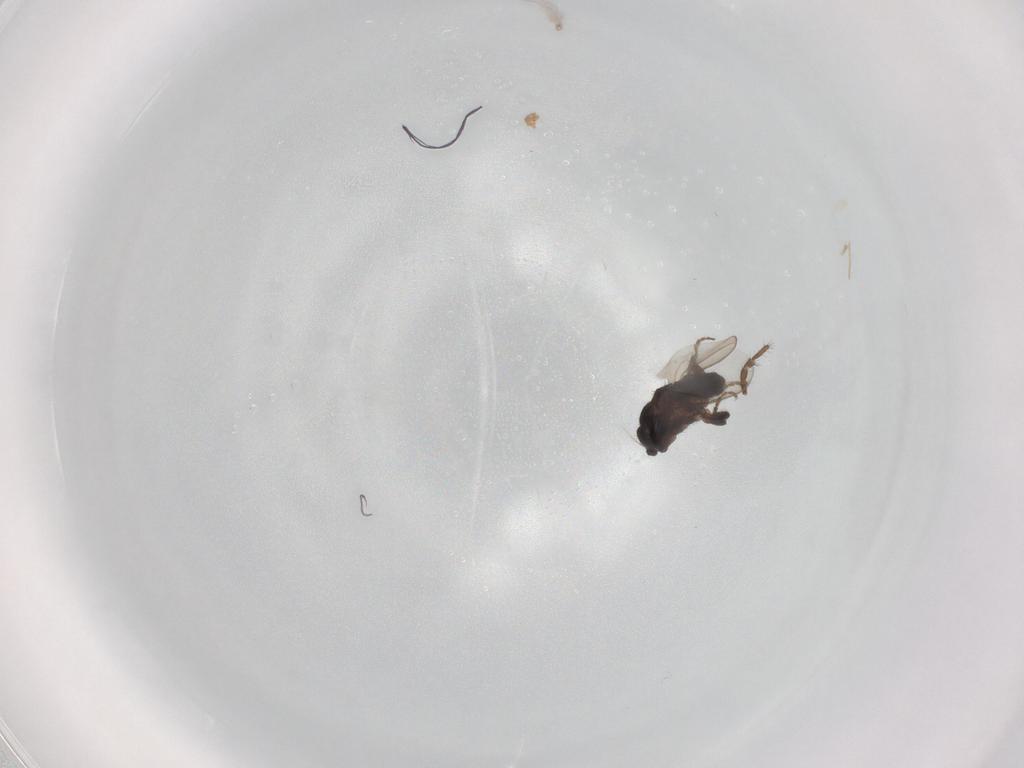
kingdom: Animalia
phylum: Arthropoda
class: Insecta
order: Diptera
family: Sphaeroceridae
